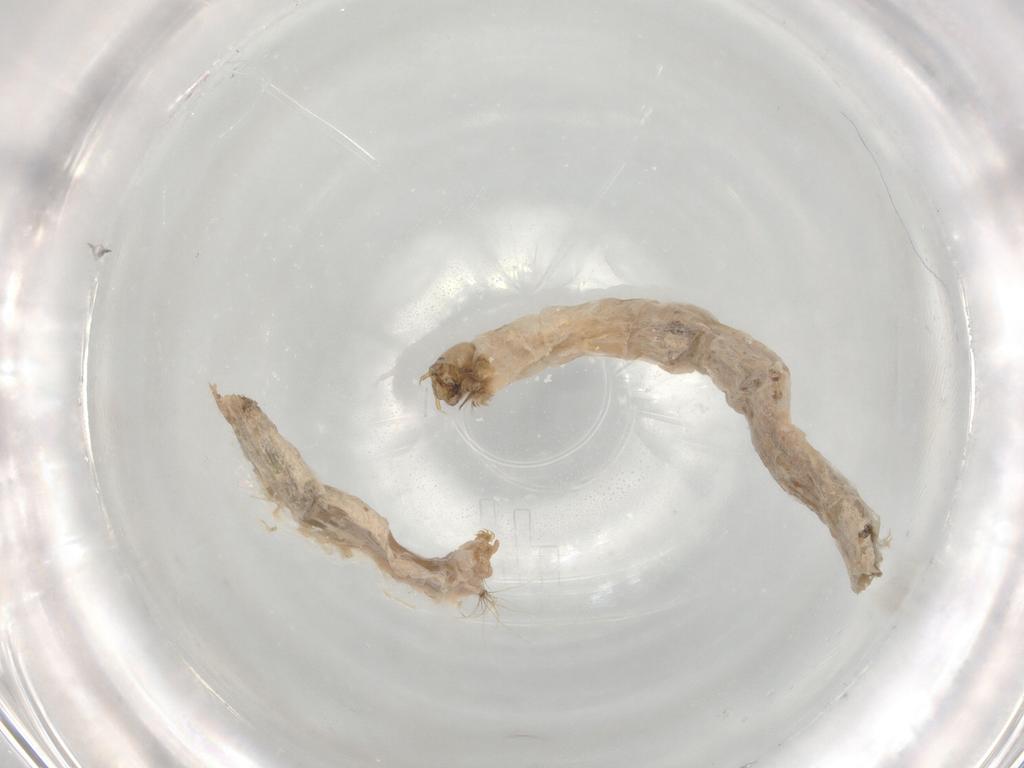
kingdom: Animalia
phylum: Arthropoda
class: Insecta
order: Diptera
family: Chironomidae
